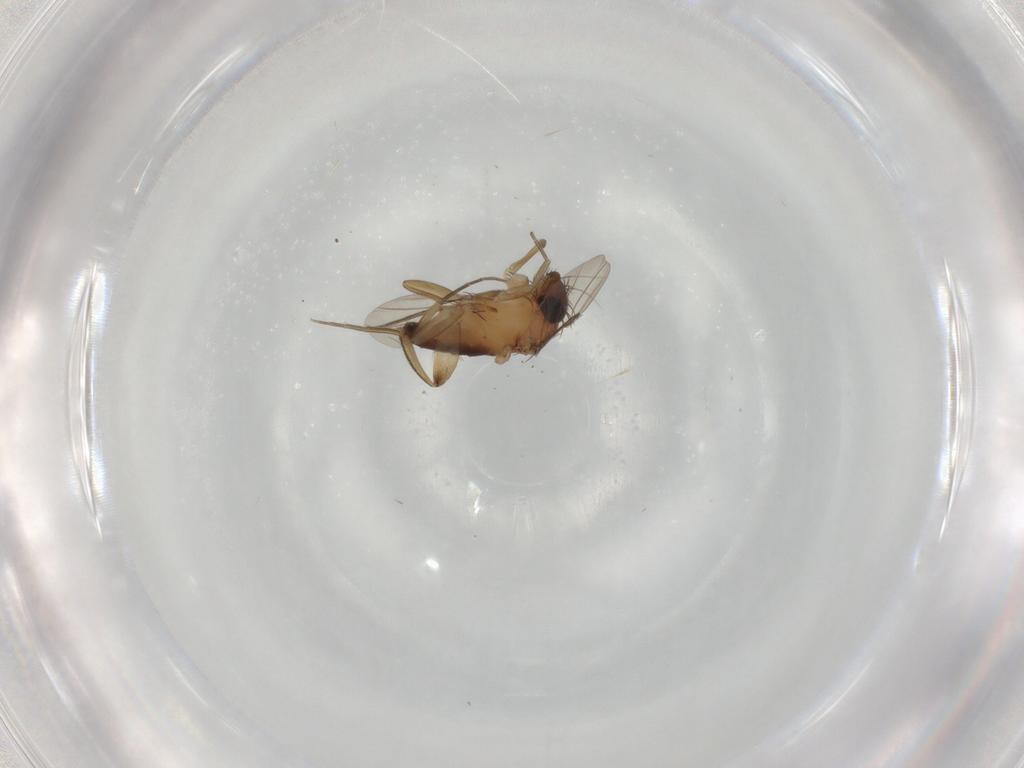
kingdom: Animalia
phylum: Arthropoda
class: Insecta
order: Diptera
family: Phoridae
